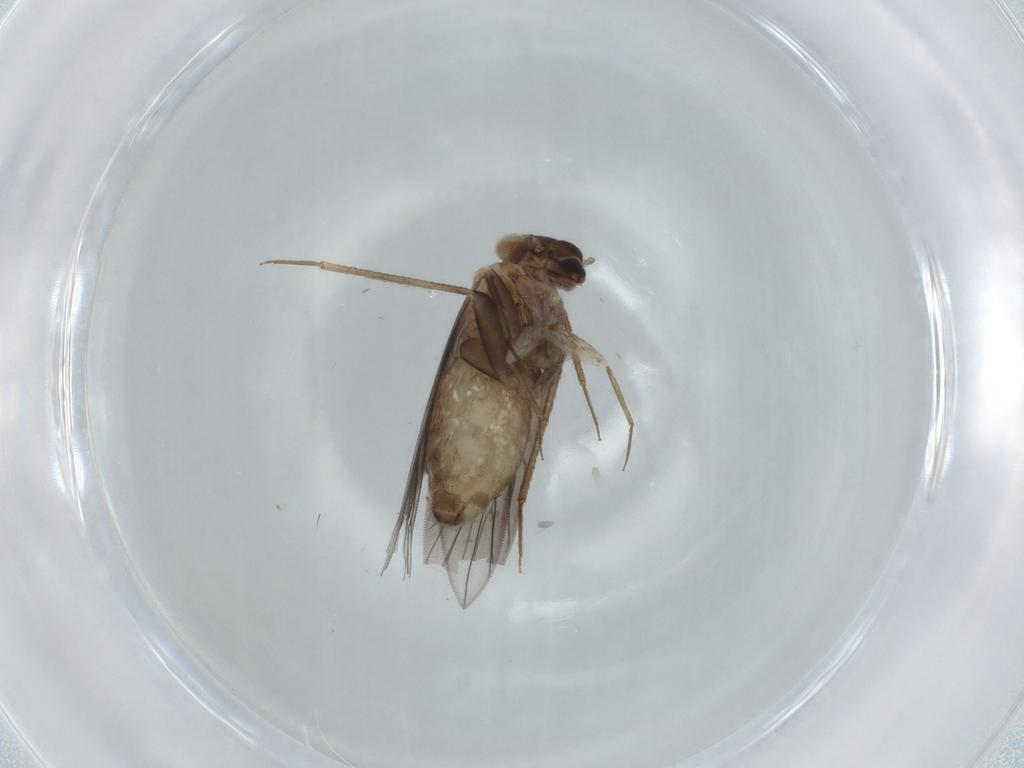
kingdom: Animalia
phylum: Arthropoda
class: Insecta
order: Psocodea
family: Lepidopsocidae
